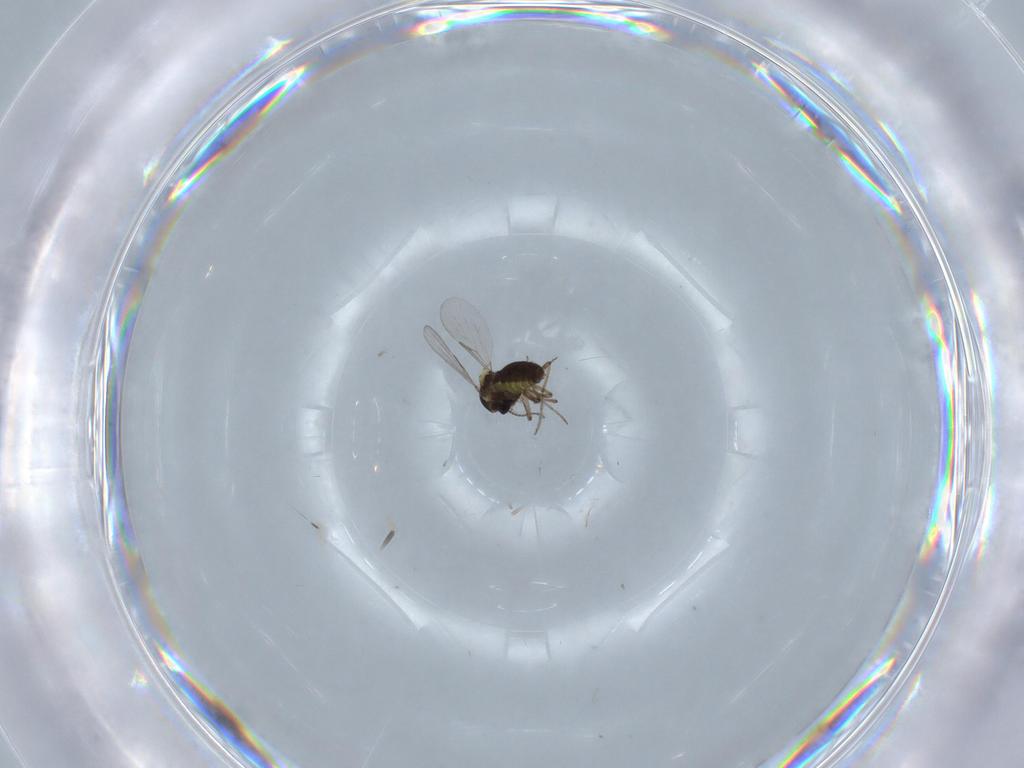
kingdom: Animalia
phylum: Arthropoda
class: Insecta
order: Diptera
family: Ceratopogonidae
